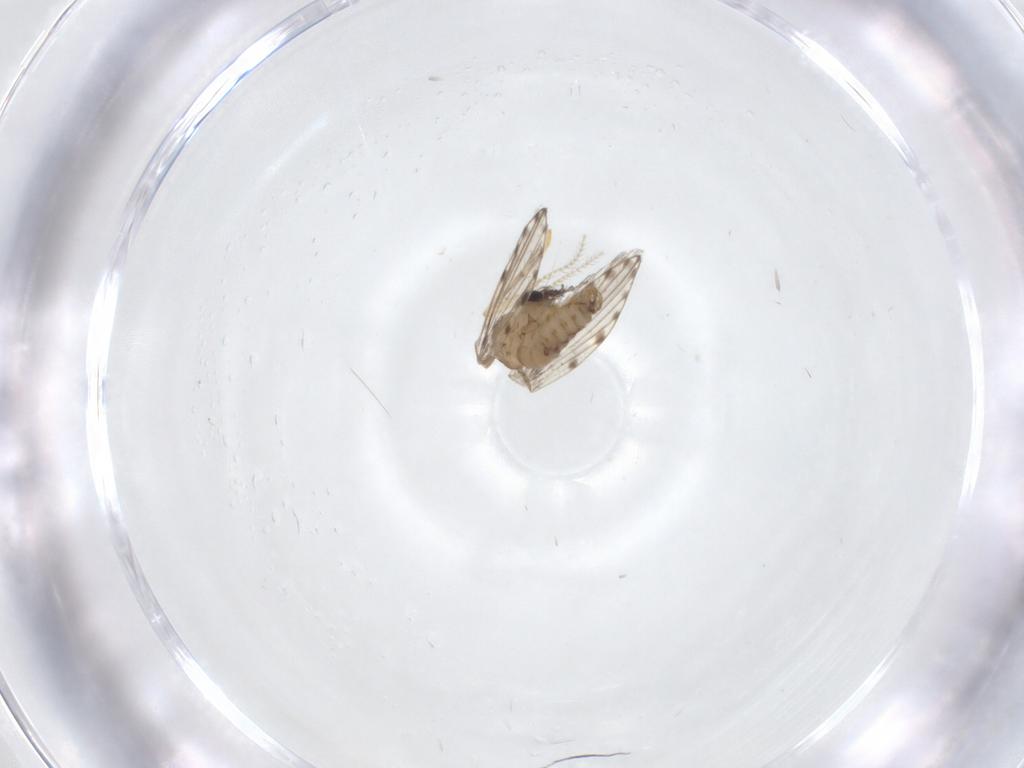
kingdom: Animalia
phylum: Arthropoda
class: Insecta
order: Diptera
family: Psychodidae
